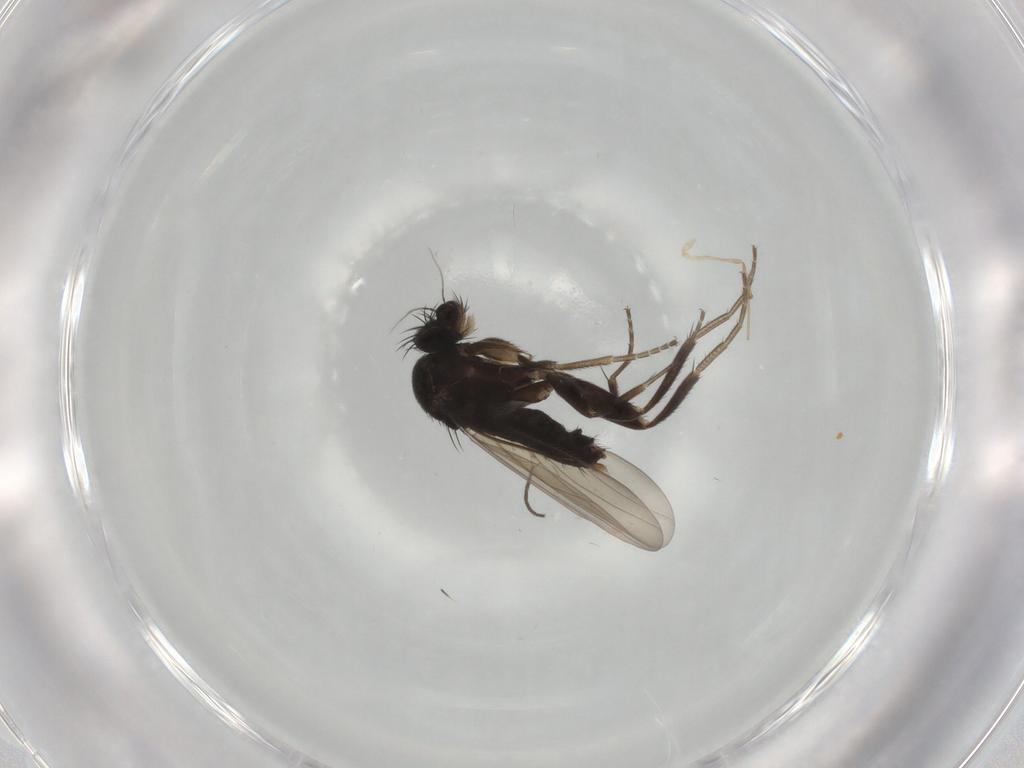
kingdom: Animalia
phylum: Arthropoda
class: Insecta
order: Diptera
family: Phoridae
